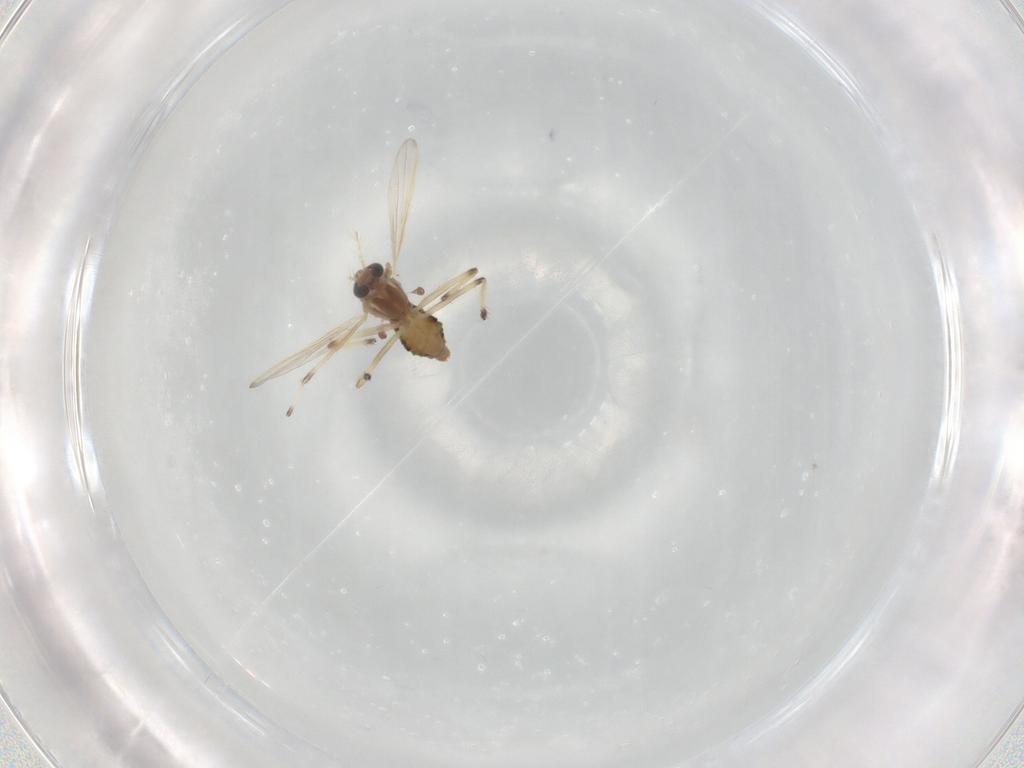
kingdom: Animalia
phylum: Arthropoda
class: Insecta
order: Diptera
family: Chironomidae
